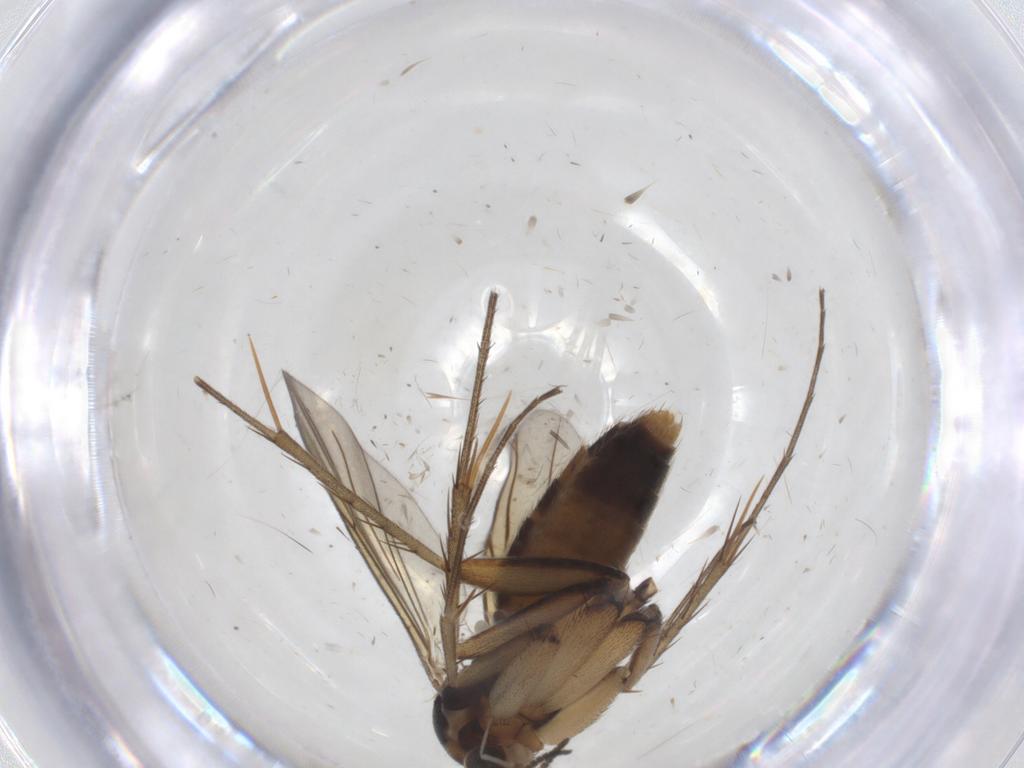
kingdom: Animalia
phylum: Arthropoda
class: Insecta
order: Diptera
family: Mycetophilidae
